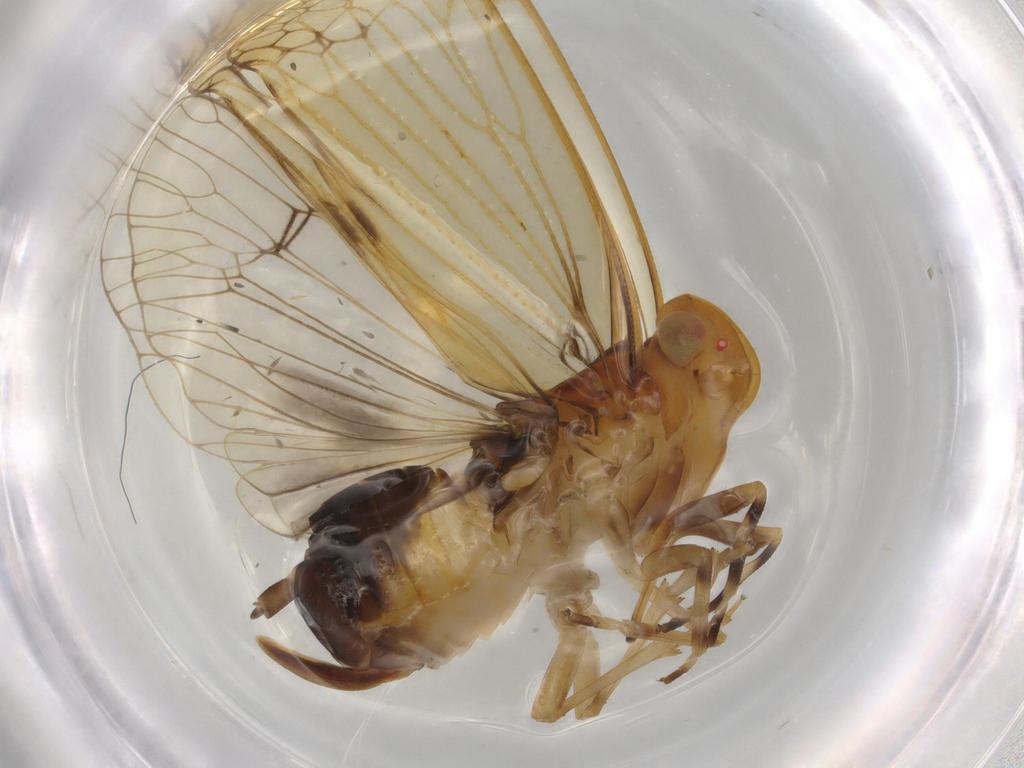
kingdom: Animalia
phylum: Arthropoda
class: Insecta
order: Hemiptera
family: Cixiidae
